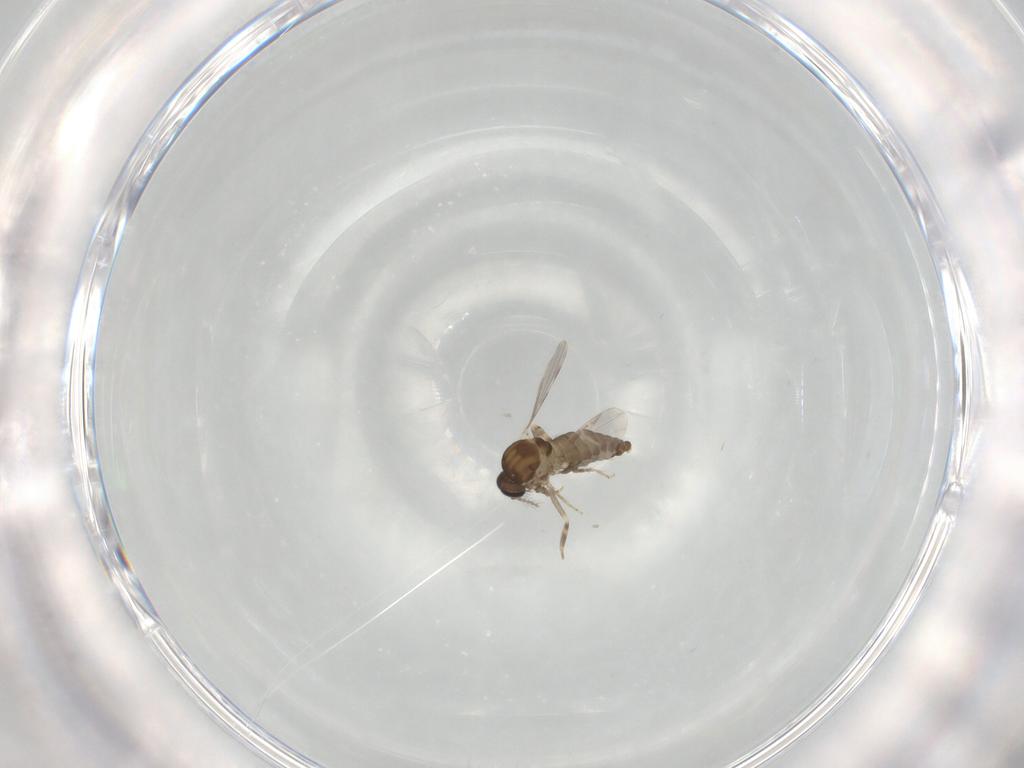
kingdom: Animalia
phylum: Arthropoda
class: Insecta
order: Diptera
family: Ceratopogonidae
